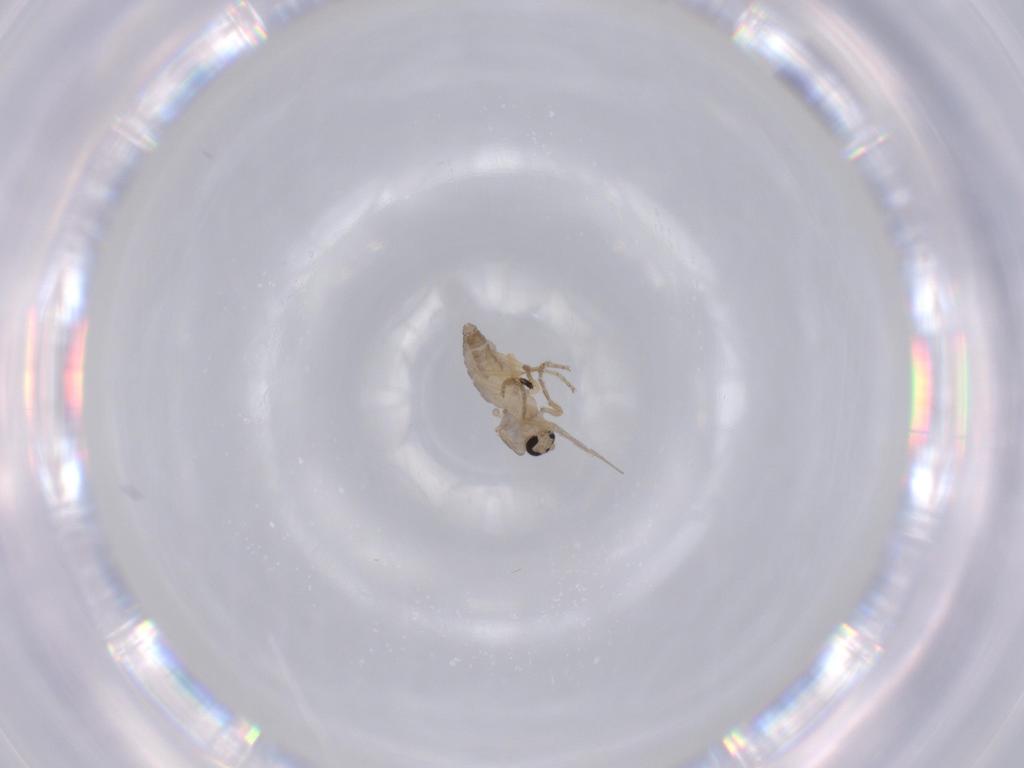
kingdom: Animalia
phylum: Arthropoda
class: Insecta
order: Diptera
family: Ceratopogonidae
